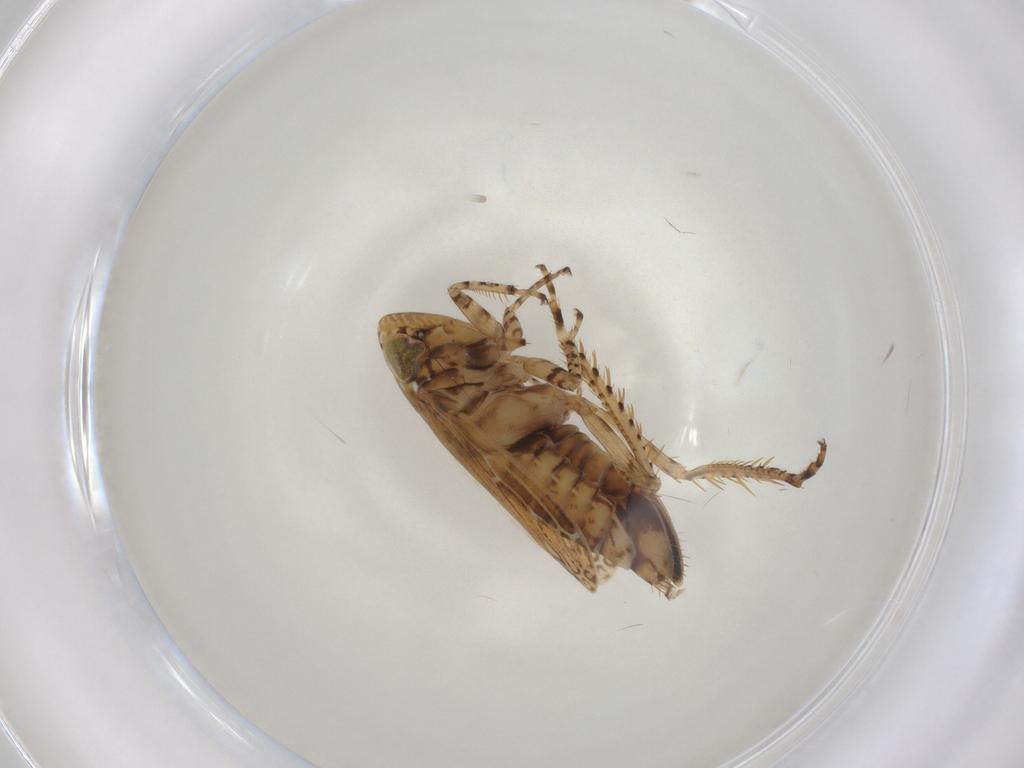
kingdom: Animalia
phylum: Arthropoda
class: Insecta
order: Hemiptera
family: Cicadellidae
